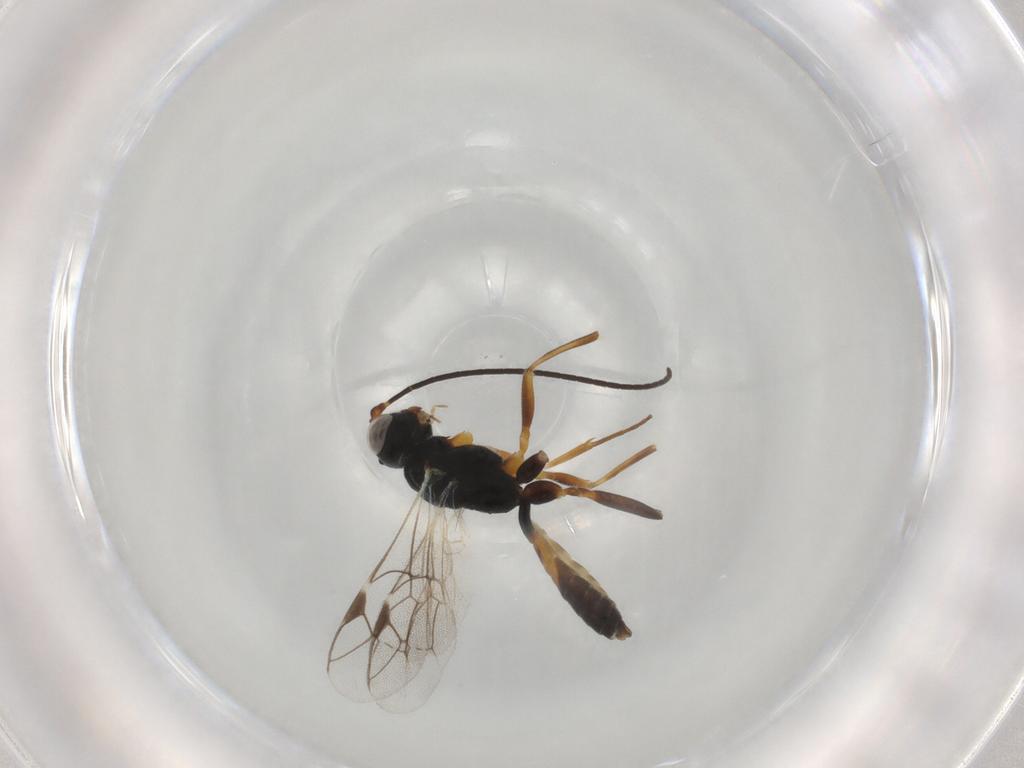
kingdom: Animalia
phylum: Arthropoda
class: Insecta
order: Hymenoptera
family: Ichneumonidae
